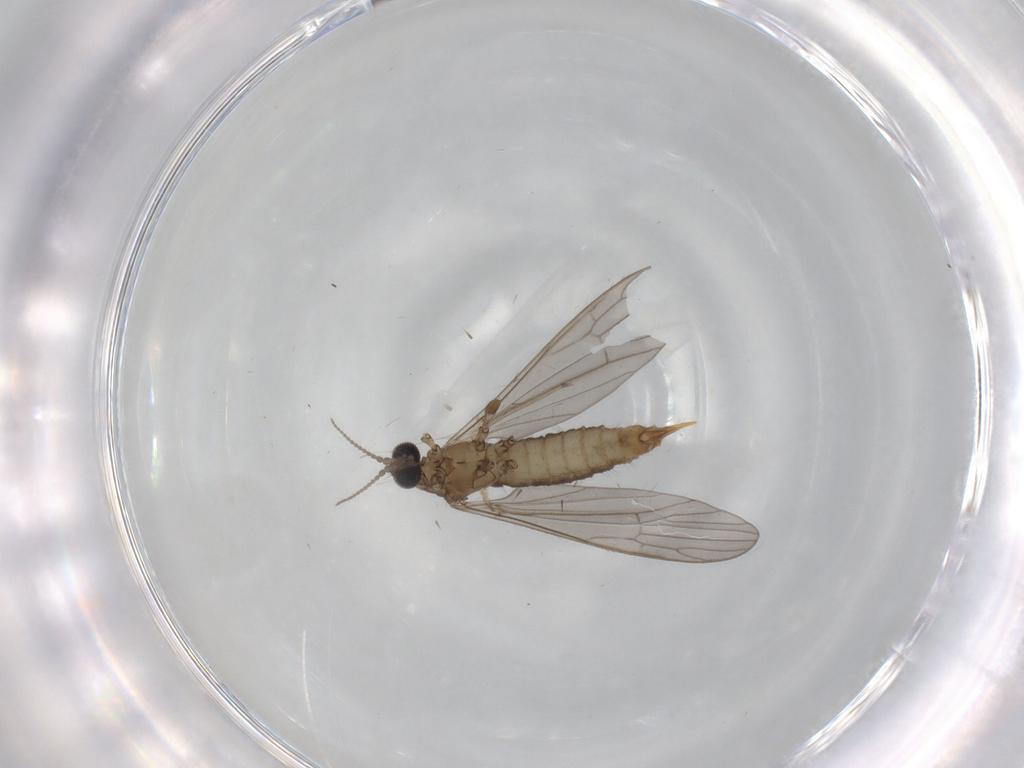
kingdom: Animalia
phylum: Arthropoda
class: Insecta
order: Diptera
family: Limoniidae
